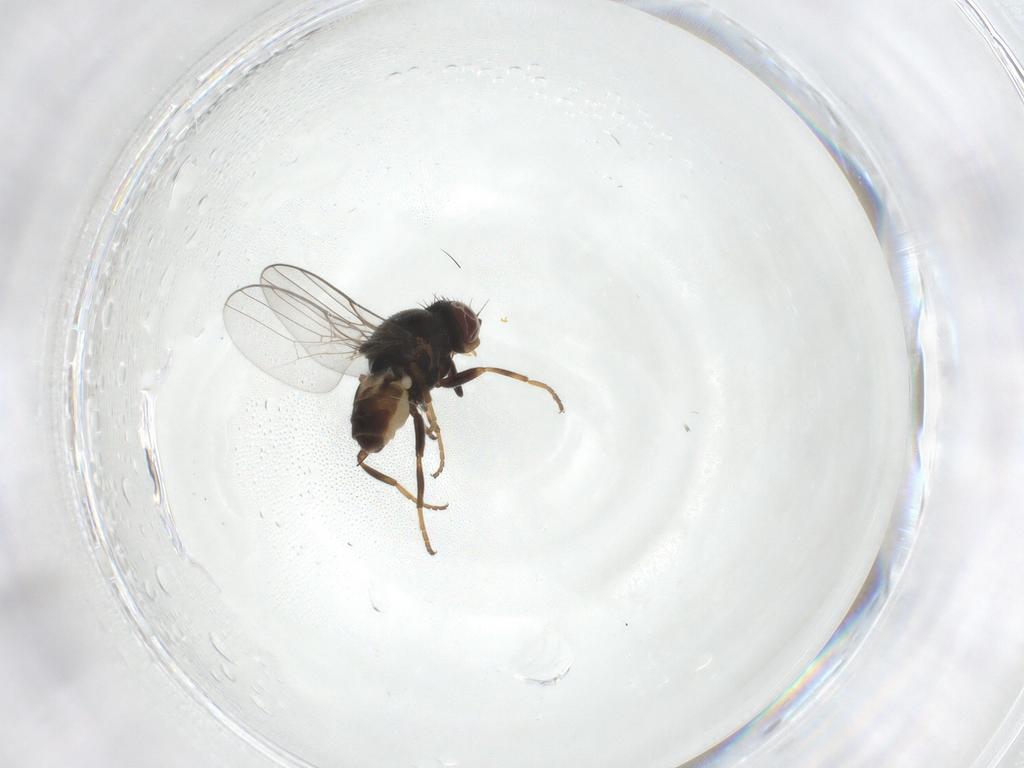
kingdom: Animalia
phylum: Arthropoda
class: Insecta
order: Diptera
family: Chloropidae
